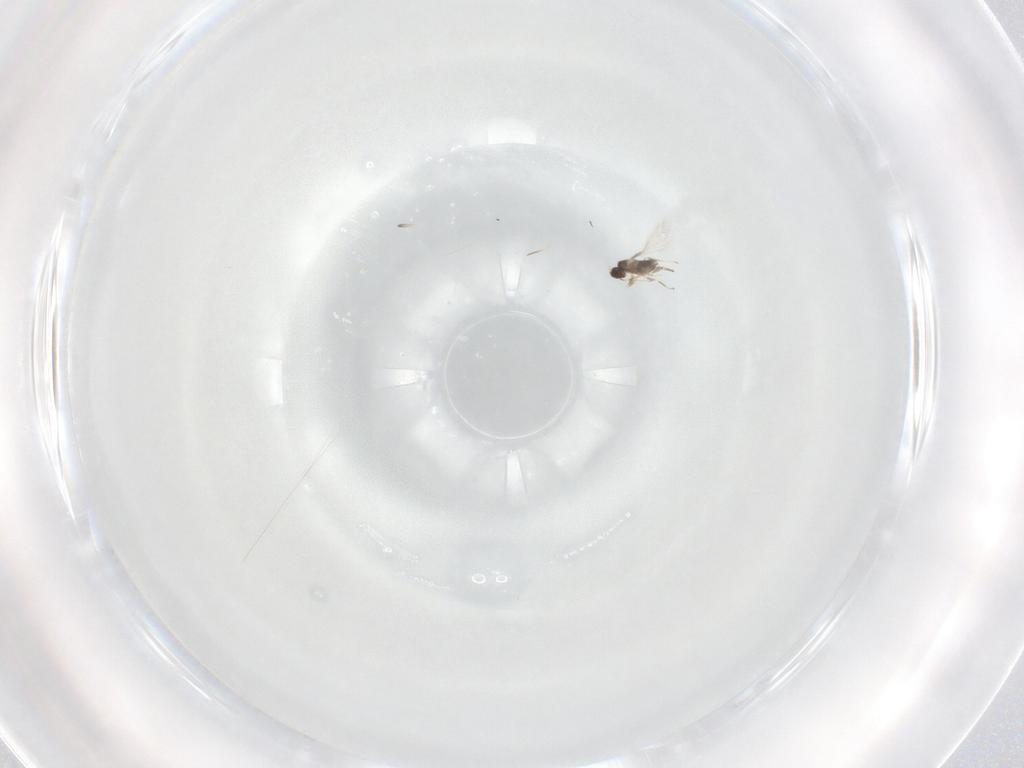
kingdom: Animalia
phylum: Arthropoda
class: Insecta
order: Hymenoptera
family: Mymaridae
